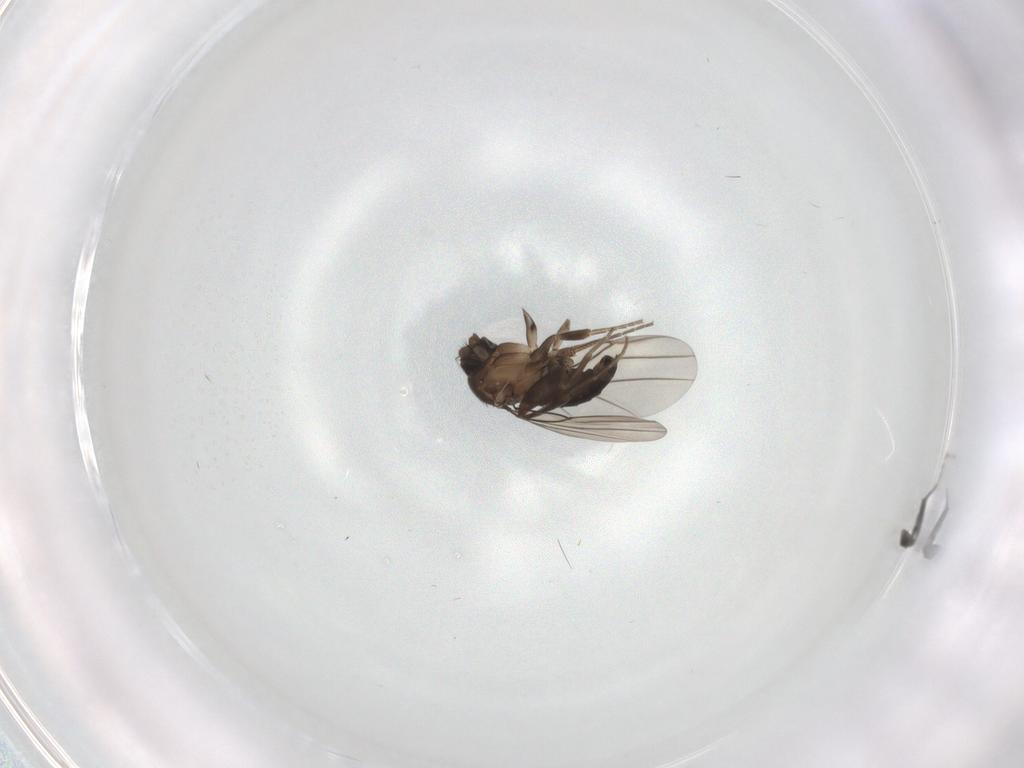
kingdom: Animalia
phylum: Arthropoda
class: Insecta
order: Diptera
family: Phoridae
